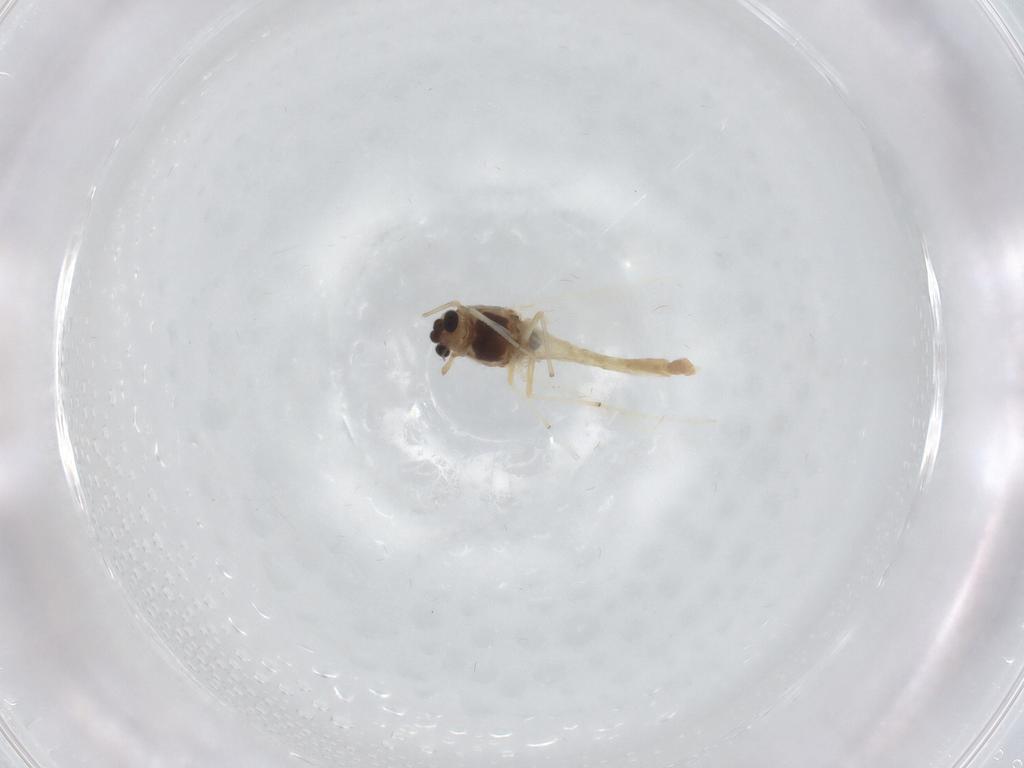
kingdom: Animalia
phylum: Arthropoda
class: Insecta
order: Diptera
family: Chironomidae
